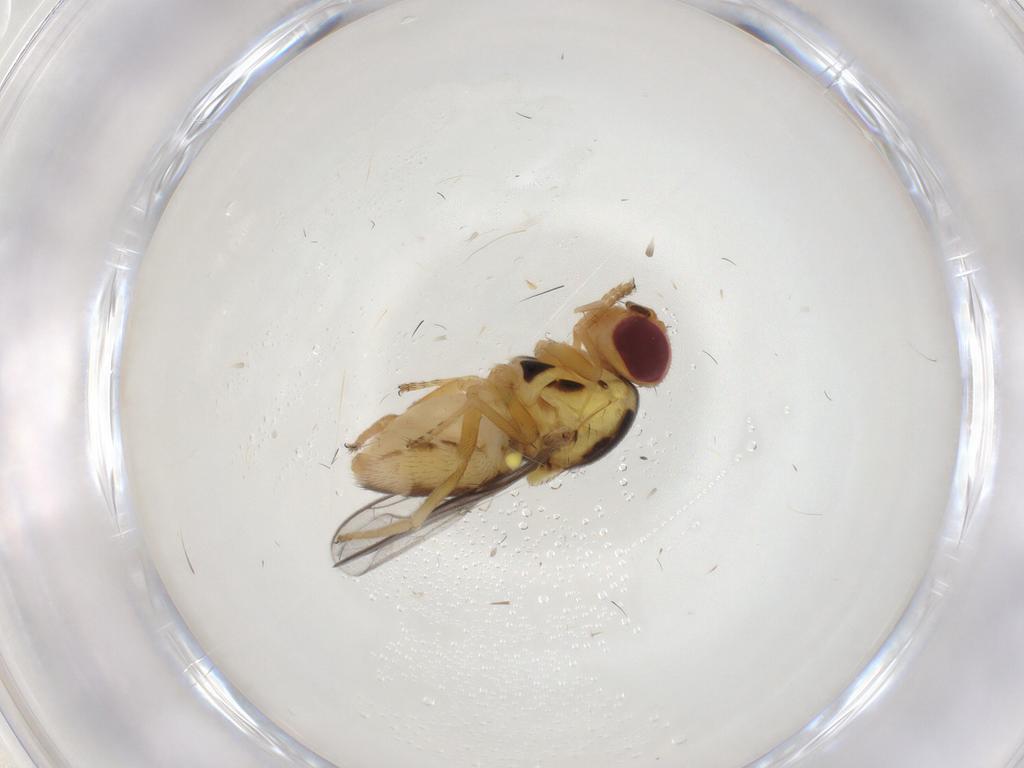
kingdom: Animalia
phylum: Arthropoda
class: Insecta
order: Diptera
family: Chloropidae
